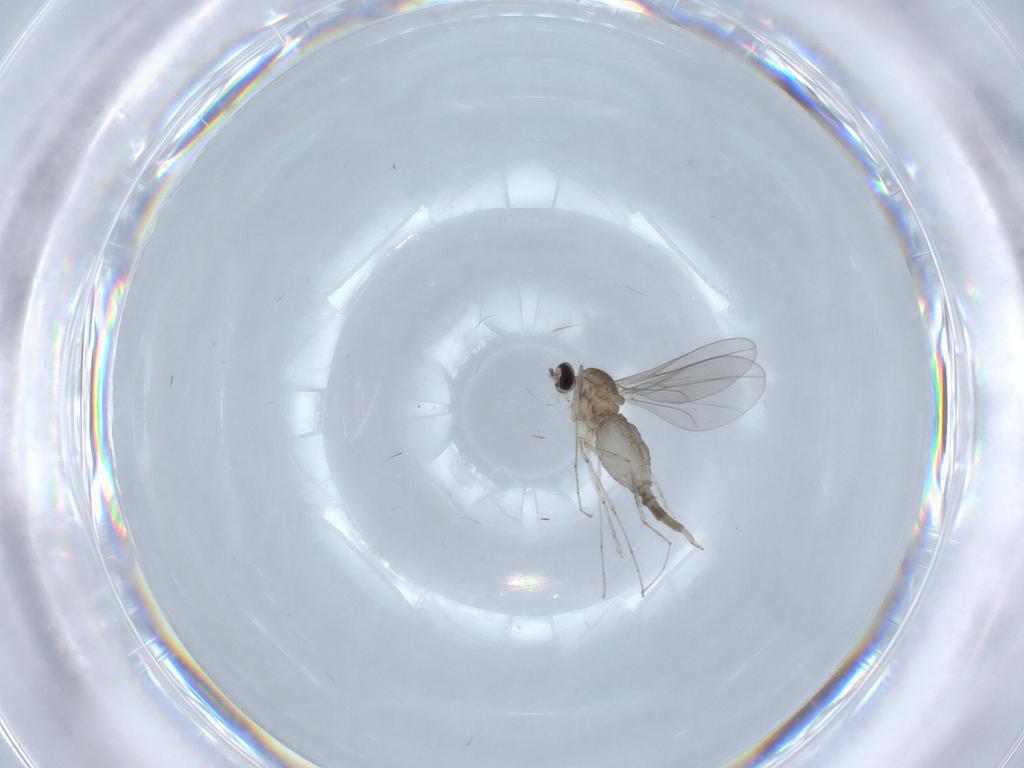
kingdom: Animalia
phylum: Arthropoda
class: Insecta
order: Diptera
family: Cecidomyiidae
